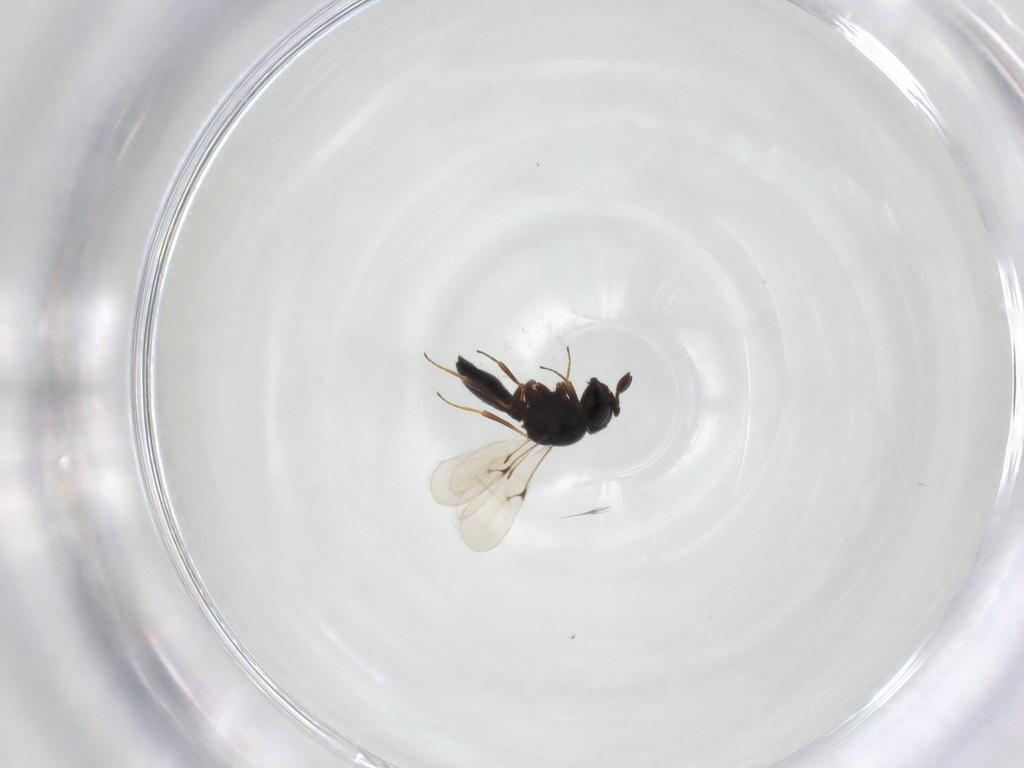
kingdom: Animalia
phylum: Arthropoda
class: Insecta
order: Hymenoptera
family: Scelionidae
